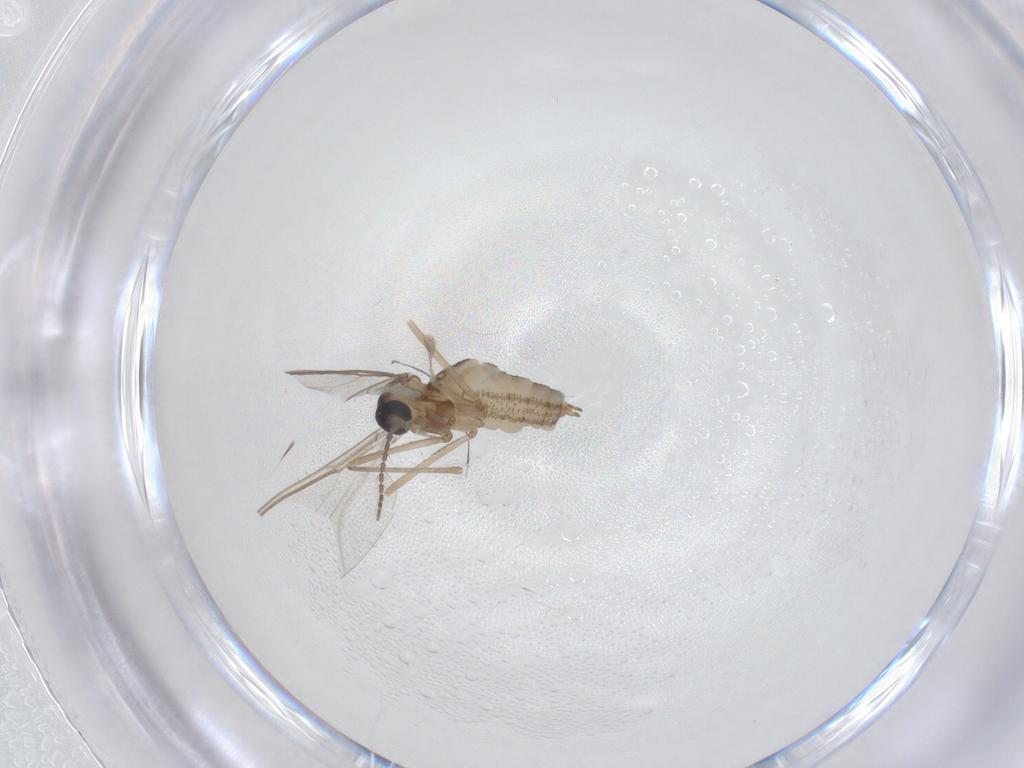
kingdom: Animalia
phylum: Arthropoda
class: Insecta
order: Diptera
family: Cecidomyiidae
